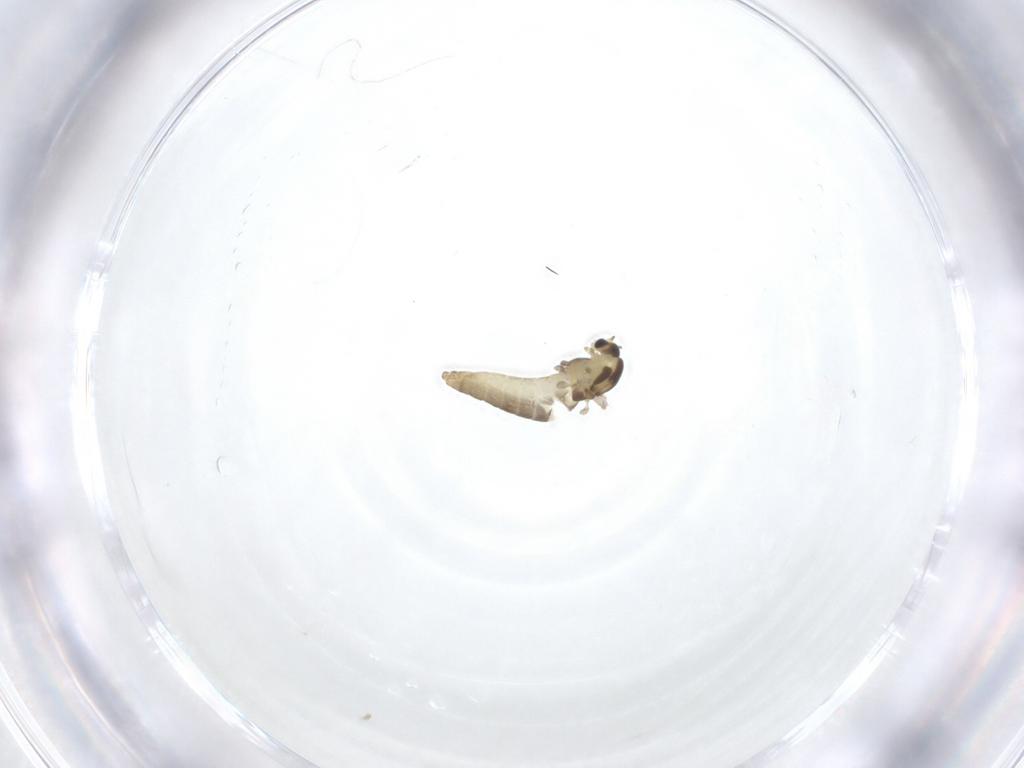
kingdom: Animalia
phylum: Arthropoda
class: Insecta
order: Diptera
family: Chironomidae
